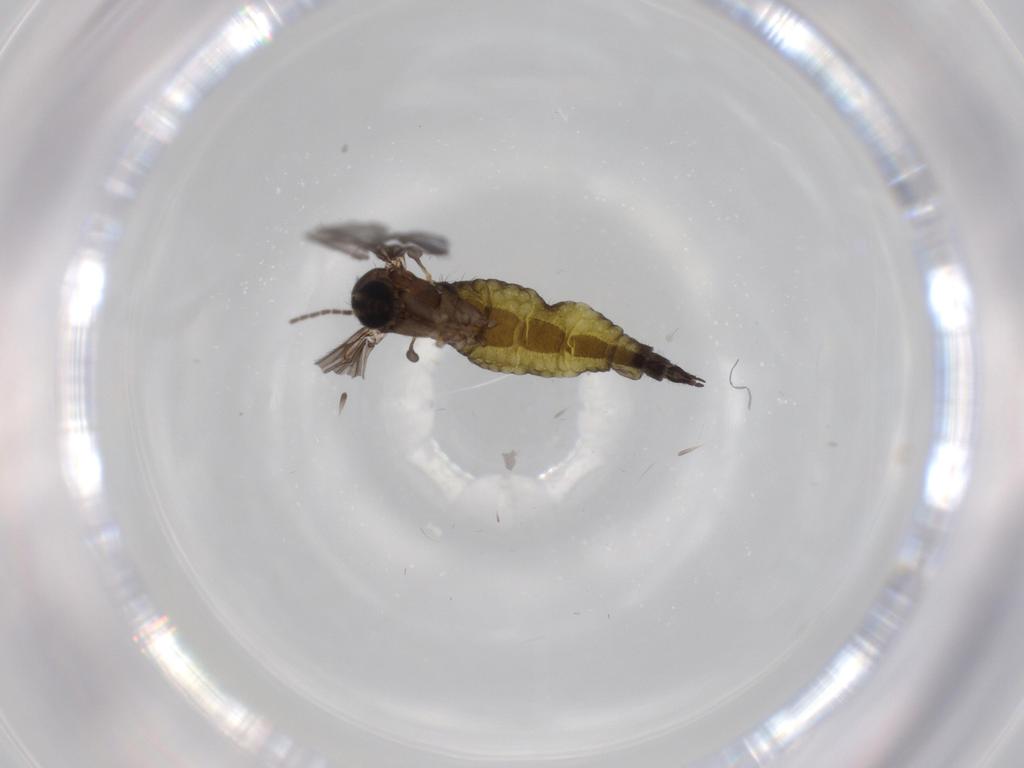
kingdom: Animalia
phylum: Arthropoda
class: Insecta
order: Diptera
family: Sciaridae
